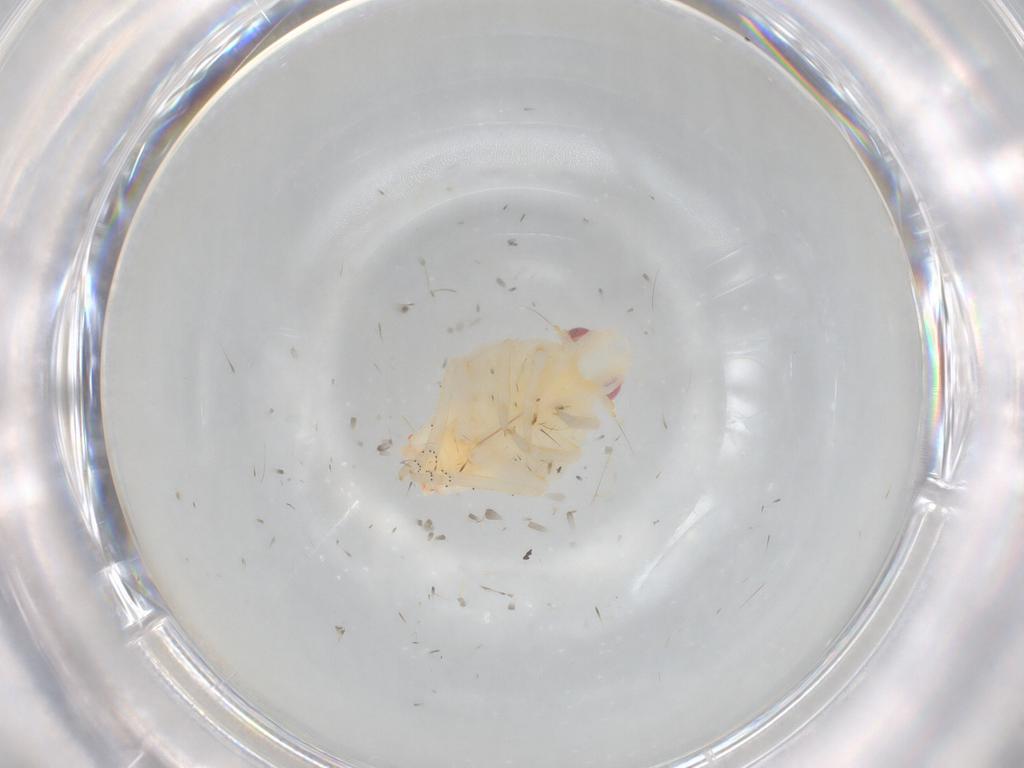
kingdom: Animalia
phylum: Arthropoda
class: Insecta
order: Hemiptera
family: Flatidae
